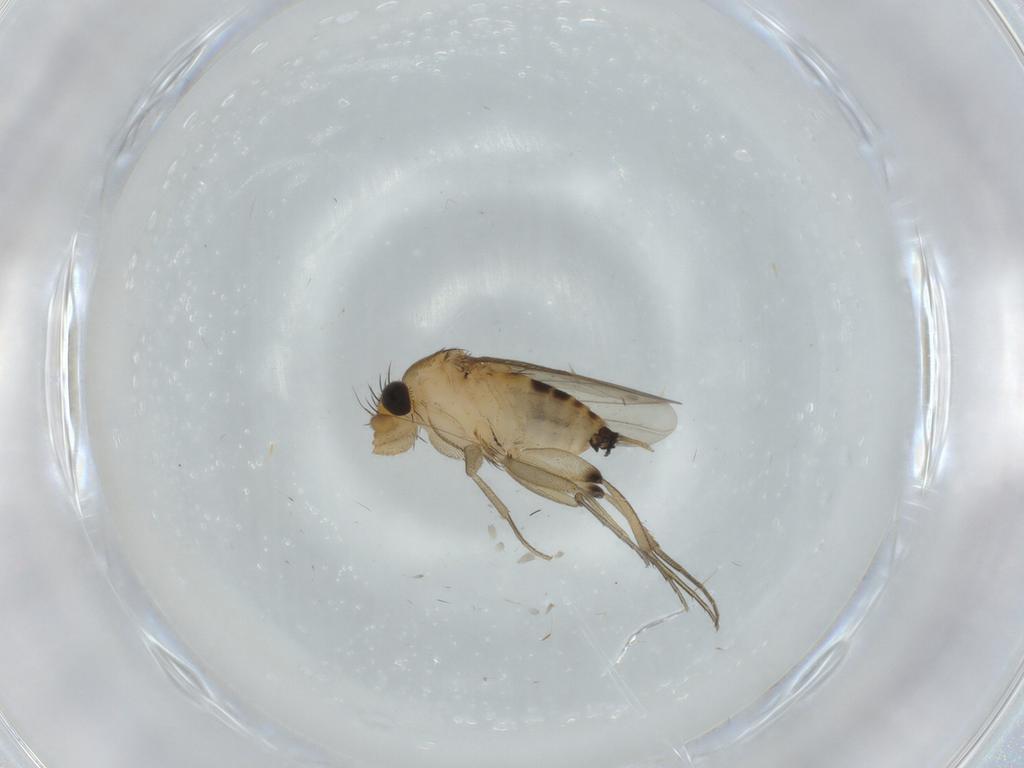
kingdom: Animalia
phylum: Arthropoda
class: Insecta
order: Diptera
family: Phoridae
